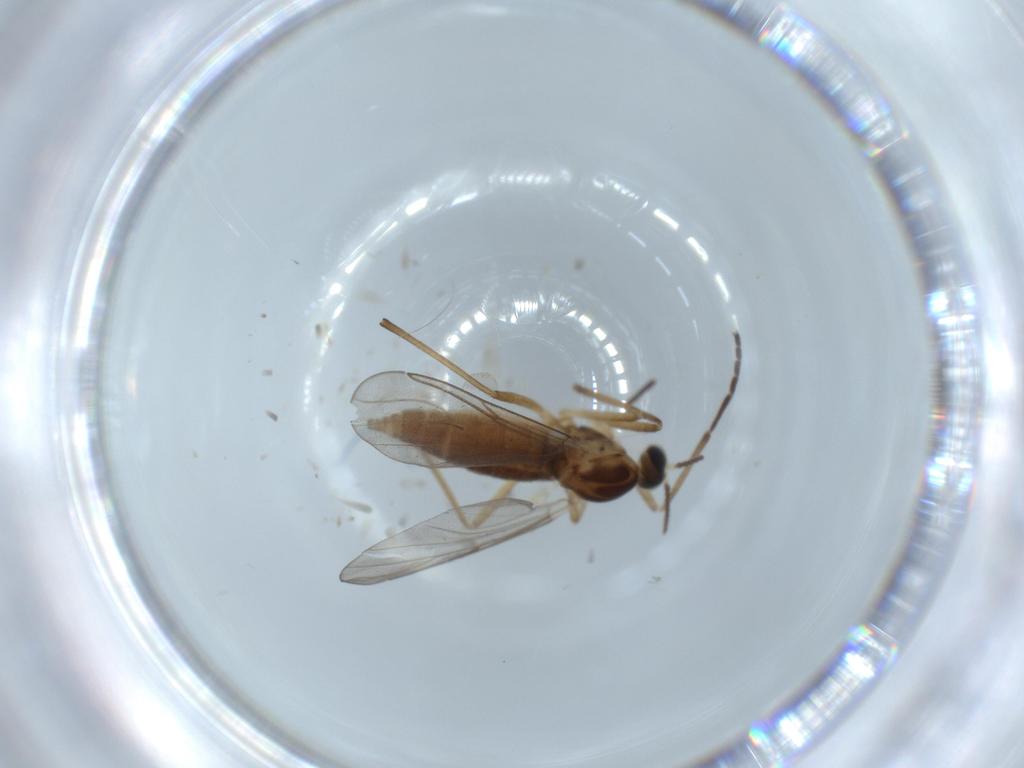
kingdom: Animalia
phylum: Arthropoda
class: Insecta
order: Diptera
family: Cecidomyiidae
